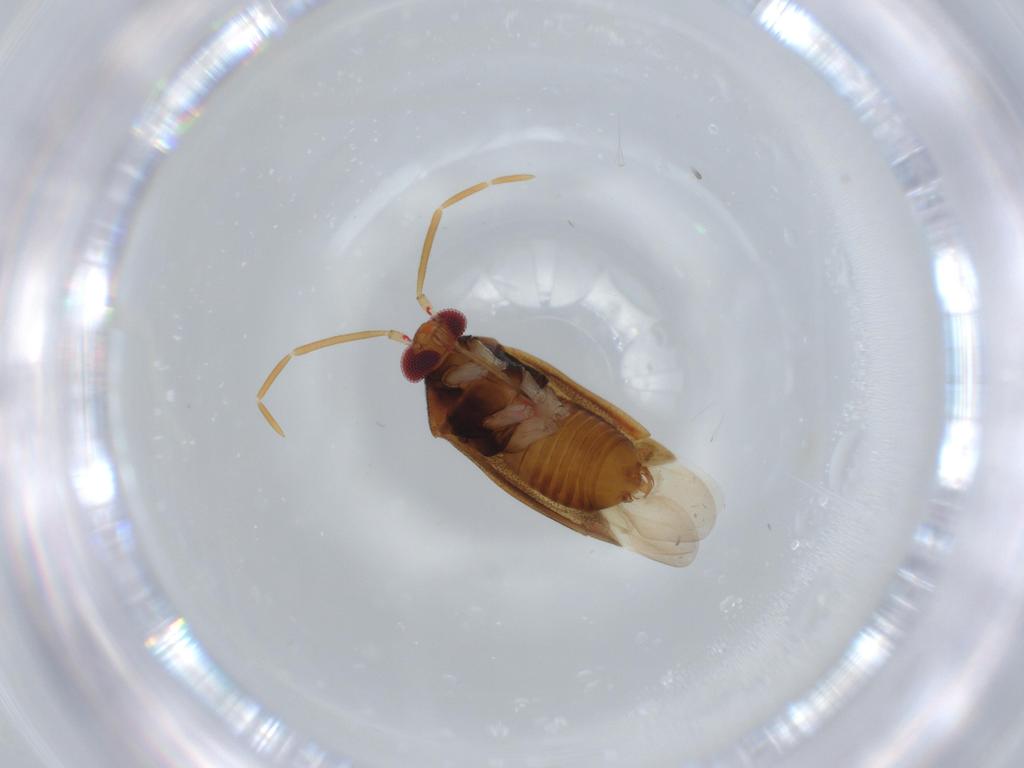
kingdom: Animalia
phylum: Arthropoda
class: Insecta
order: Hemiptera
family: Miridae
